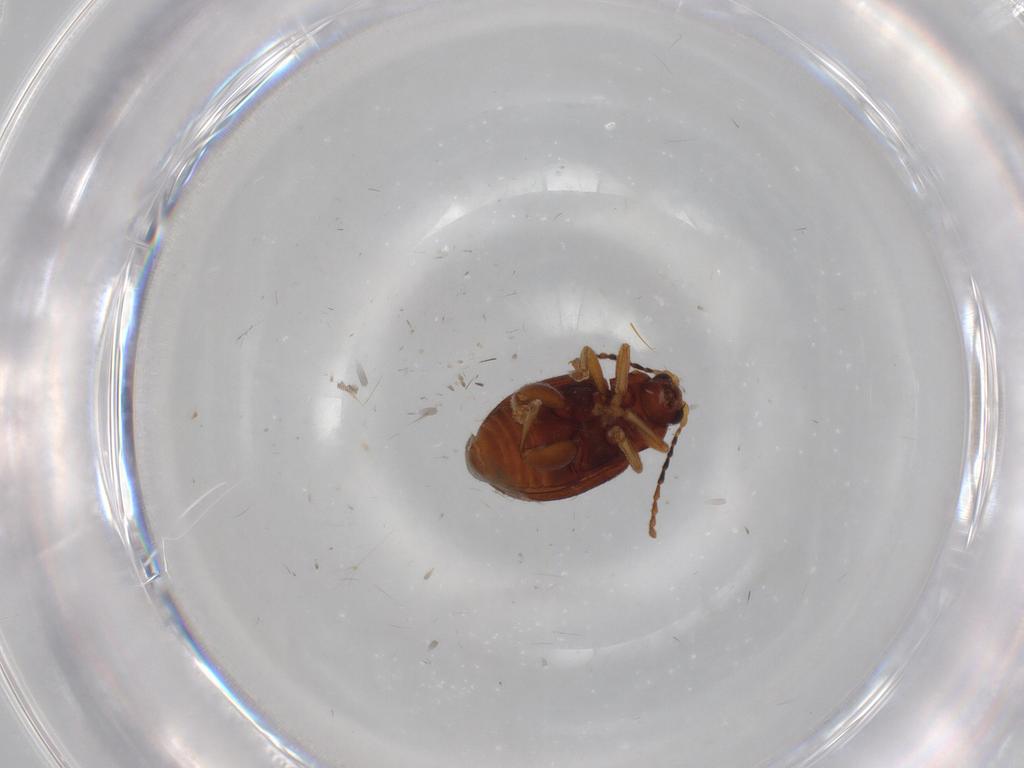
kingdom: Animalia
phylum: Arthropoda
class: Insecta
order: Coleoptera
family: Chrysomelidae
